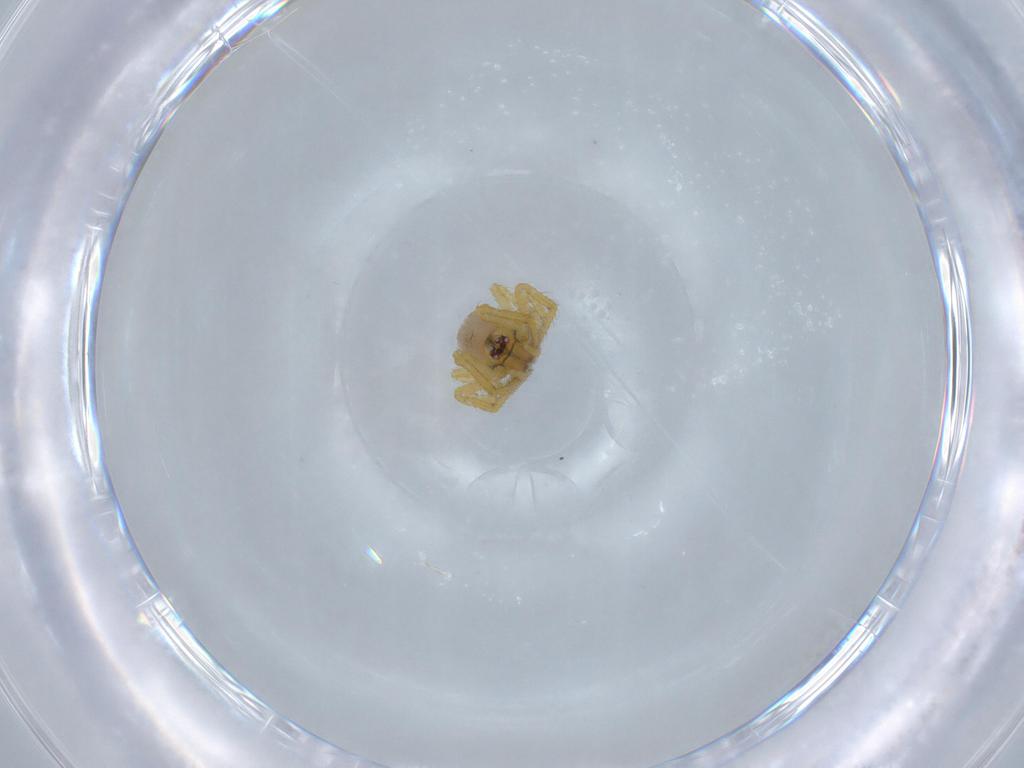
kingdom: Animalia
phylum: Arthropoda
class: Arachnida
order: Araneae
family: Theridiidae
